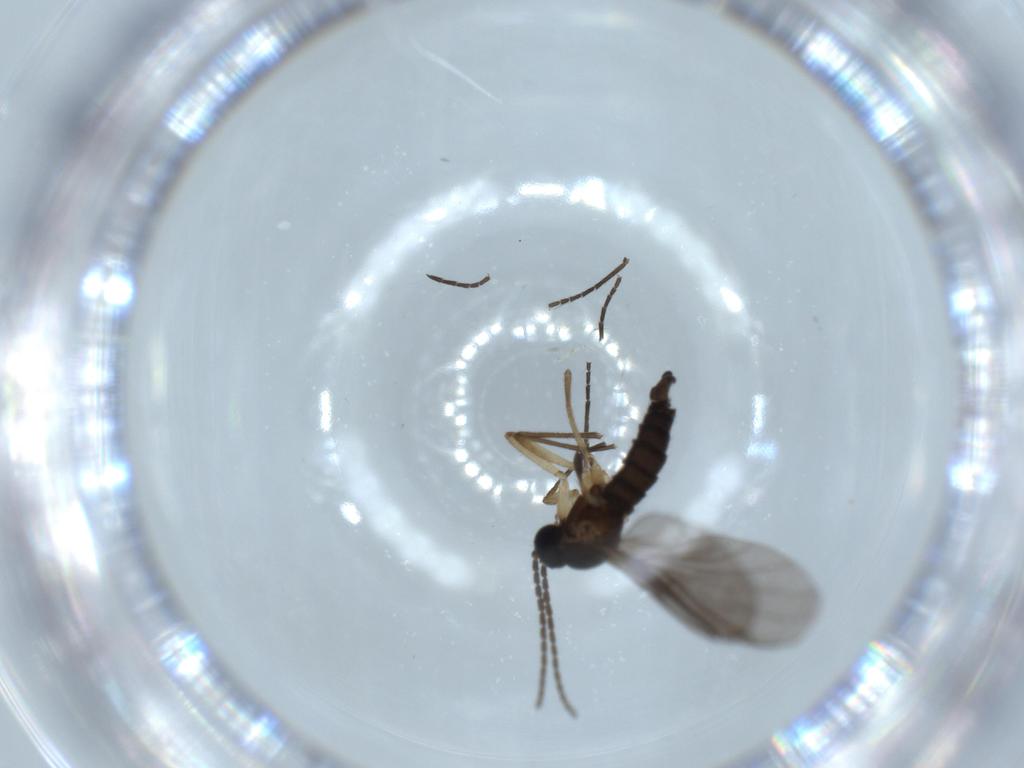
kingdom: Animalia
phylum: Arthropoda
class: Insecta
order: Diptera
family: Sciaridae
